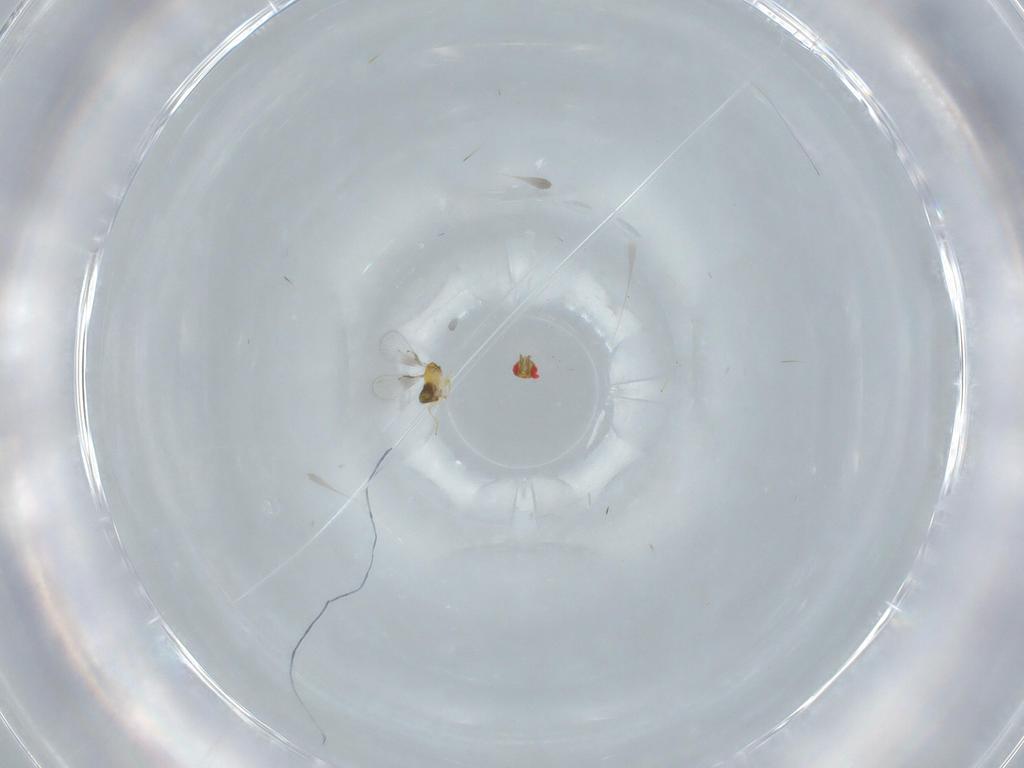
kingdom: Animalia
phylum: Arthropoda
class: Insecta
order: Hymenoptera
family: Trichogrammatidae
